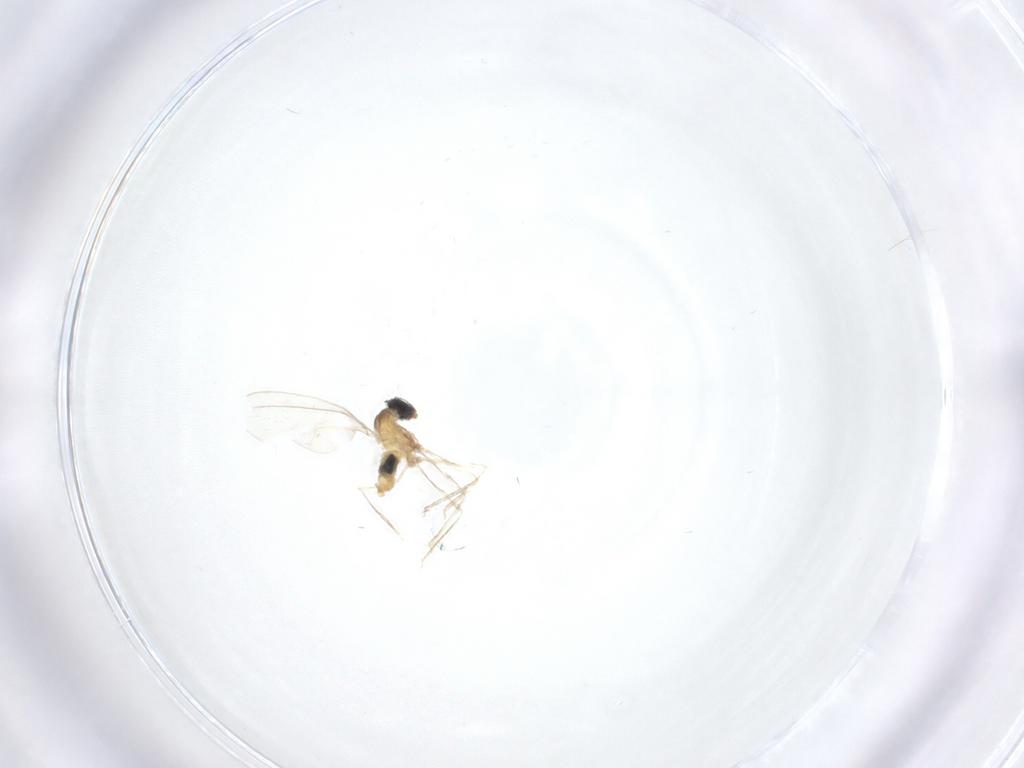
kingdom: Animalia
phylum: Arthropoda
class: Insecta
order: Diptera
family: Cecidomyiidae
